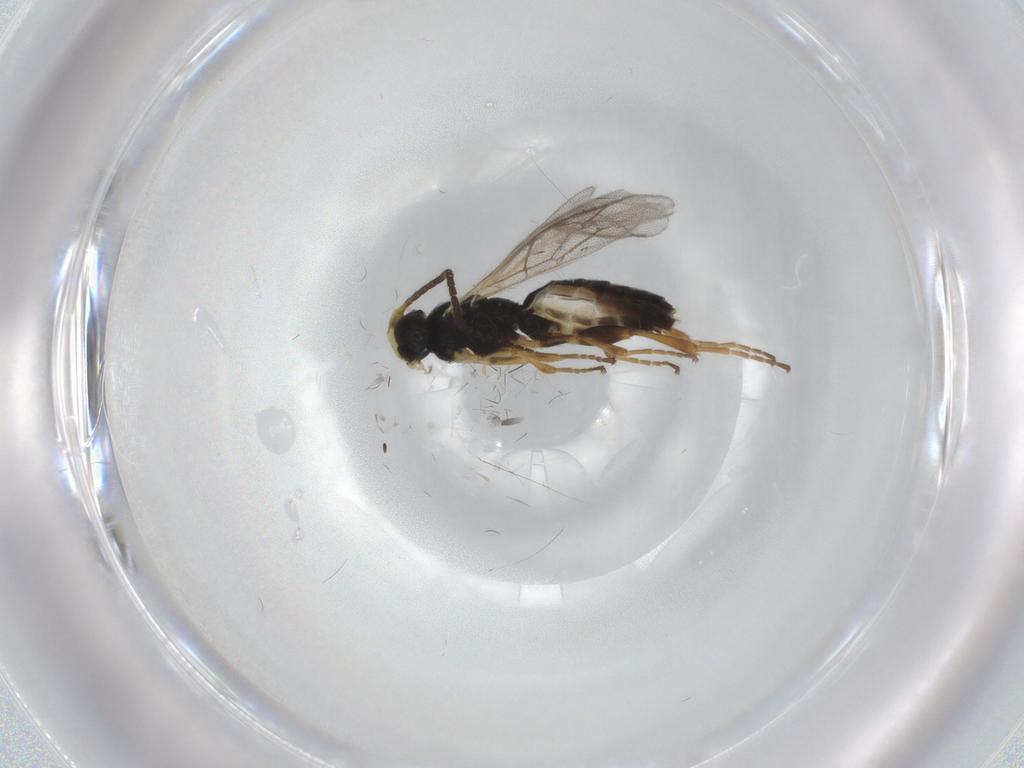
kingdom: Animalia
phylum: Arthropoda
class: Insecta
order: Hymenoptera
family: Ichneumonidae
